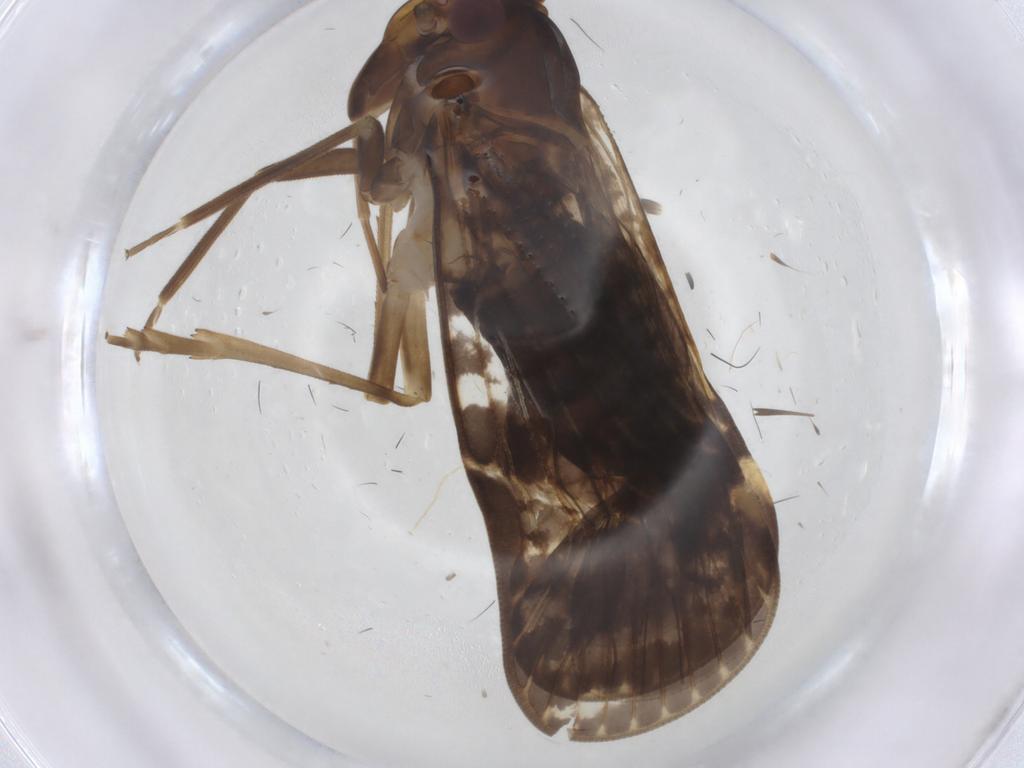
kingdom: Animalia
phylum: Arthropoda
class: Insecta
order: Hemiptera
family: Cixiidae
